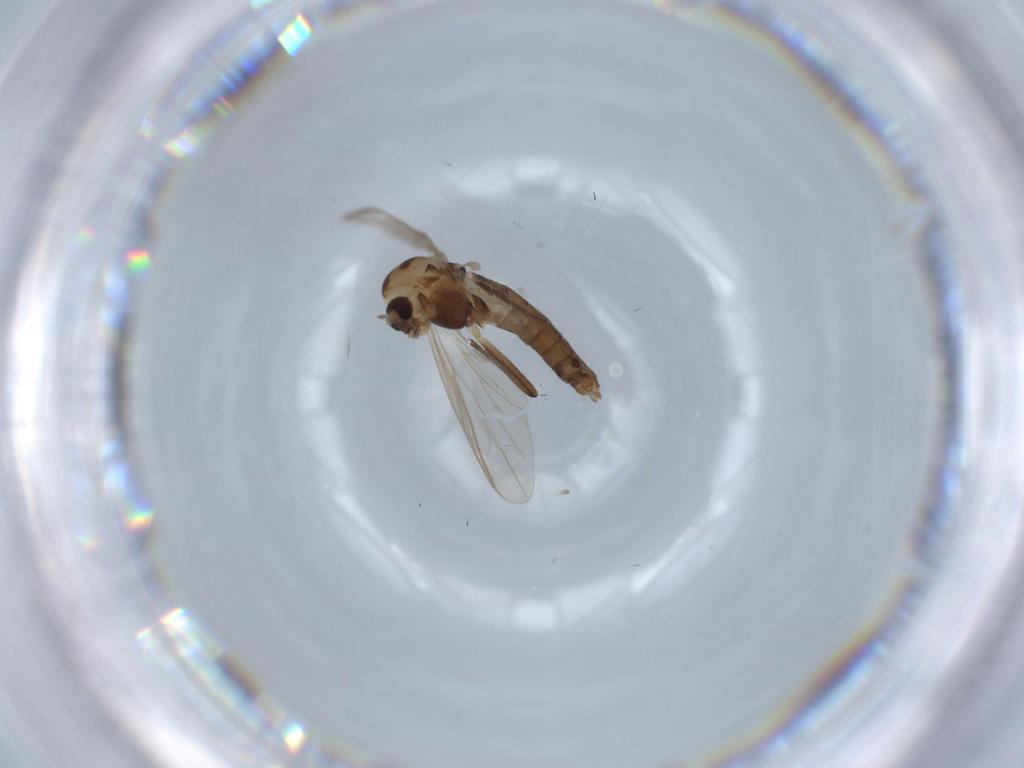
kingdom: Animalia
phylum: Arthropoda
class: Insecta
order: Diptera
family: Chironomidae
